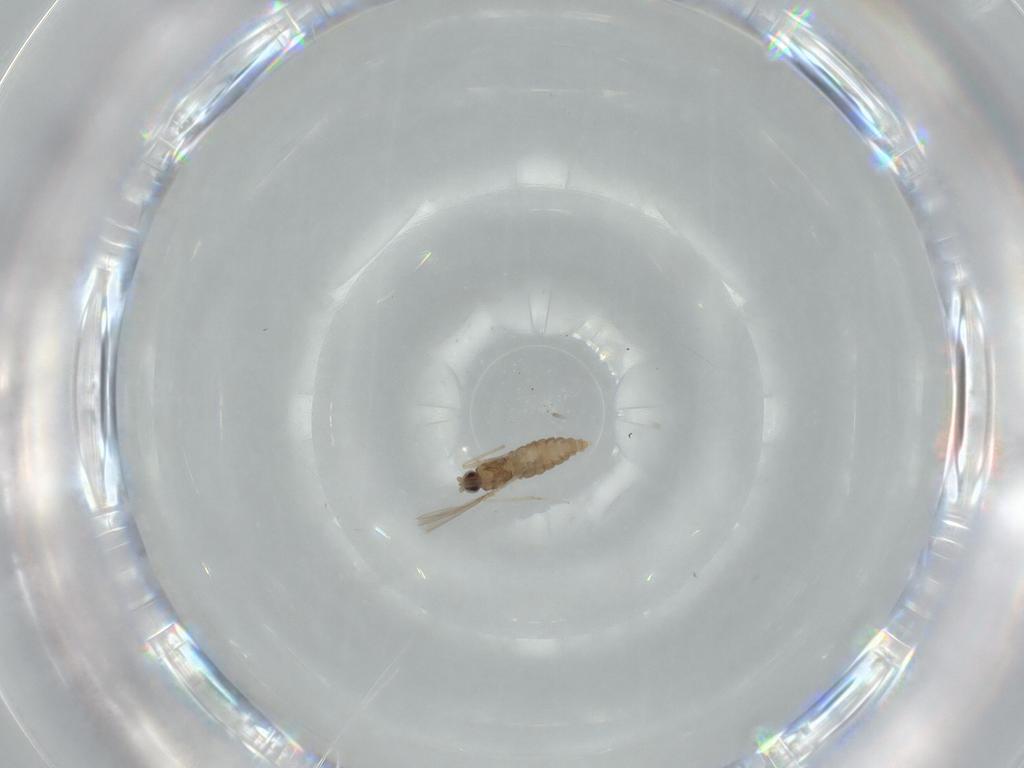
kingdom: Animalia
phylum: Arthropoda
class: Insecta
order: Diptera
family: Cecidomyiidae
